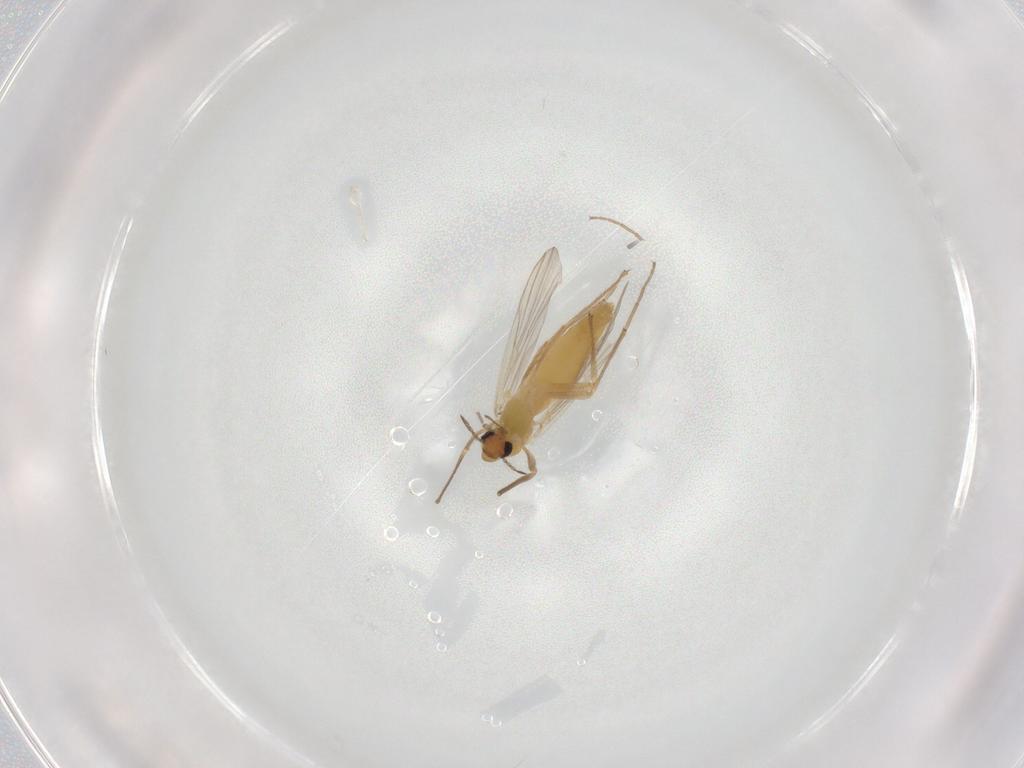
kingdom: Animalia
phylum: Arthropoda
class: Insecta
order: Diptera
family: Chironomidae
